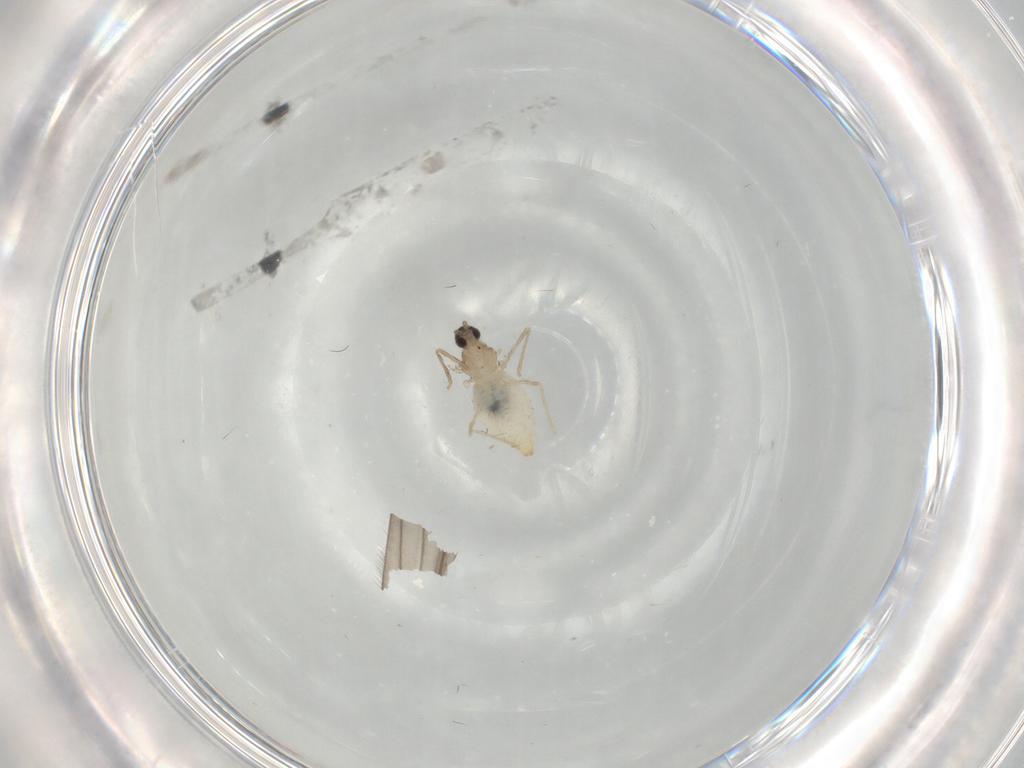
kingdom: Animalia
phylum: Arthropoda
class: Insecta
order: Diptera
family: Cecidomyiidae
